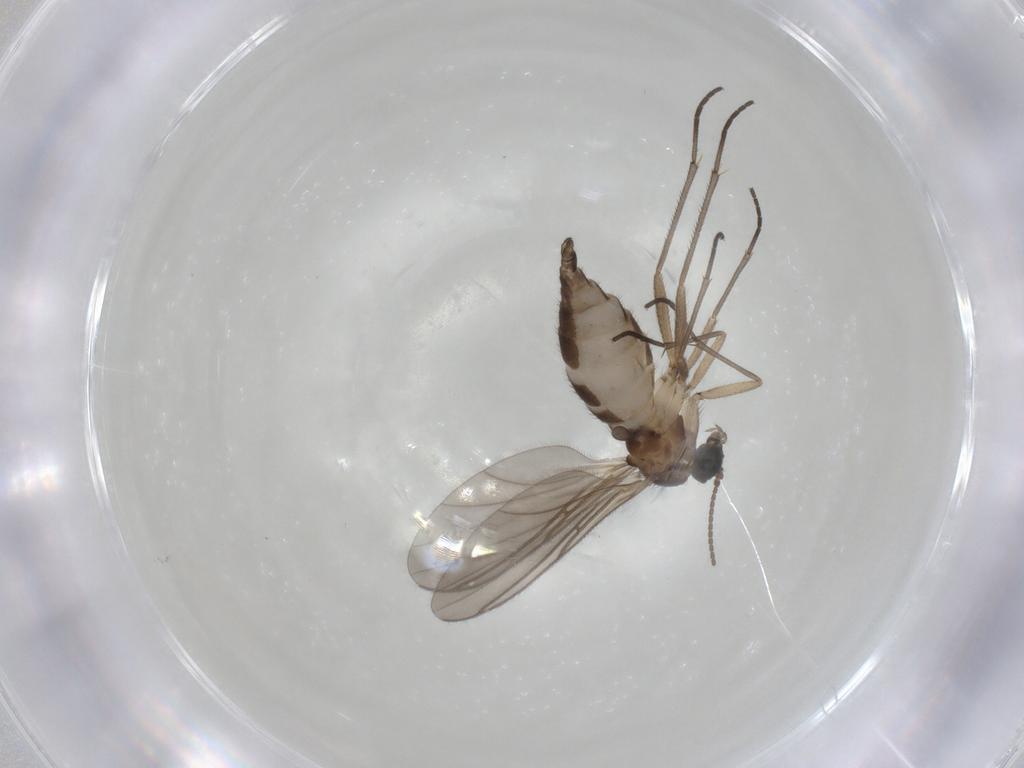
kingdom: Animalia
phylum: Arthropoda
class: Insecta
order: Diptera
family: Sciaridae
